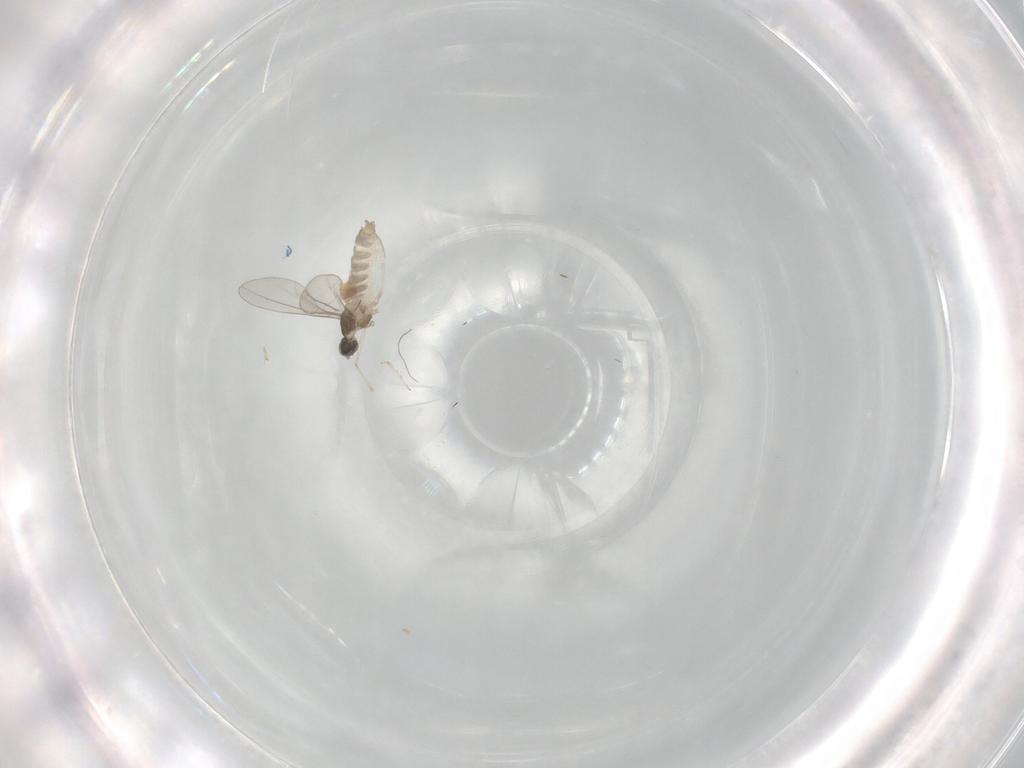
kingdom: Animalia
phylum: Arthropoda
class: Insecta
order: Diptera
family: Cecidomyiidae
